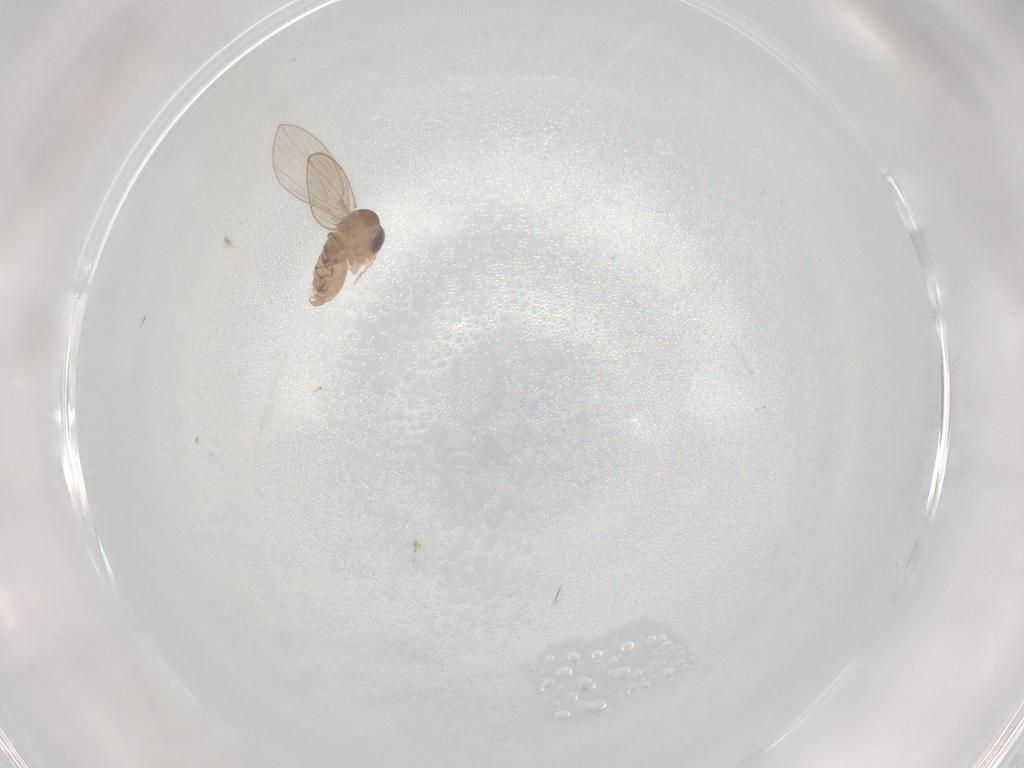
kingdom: Animalia
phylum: Arthropoda
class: Insecta
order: Diptera
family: Psychodidae
